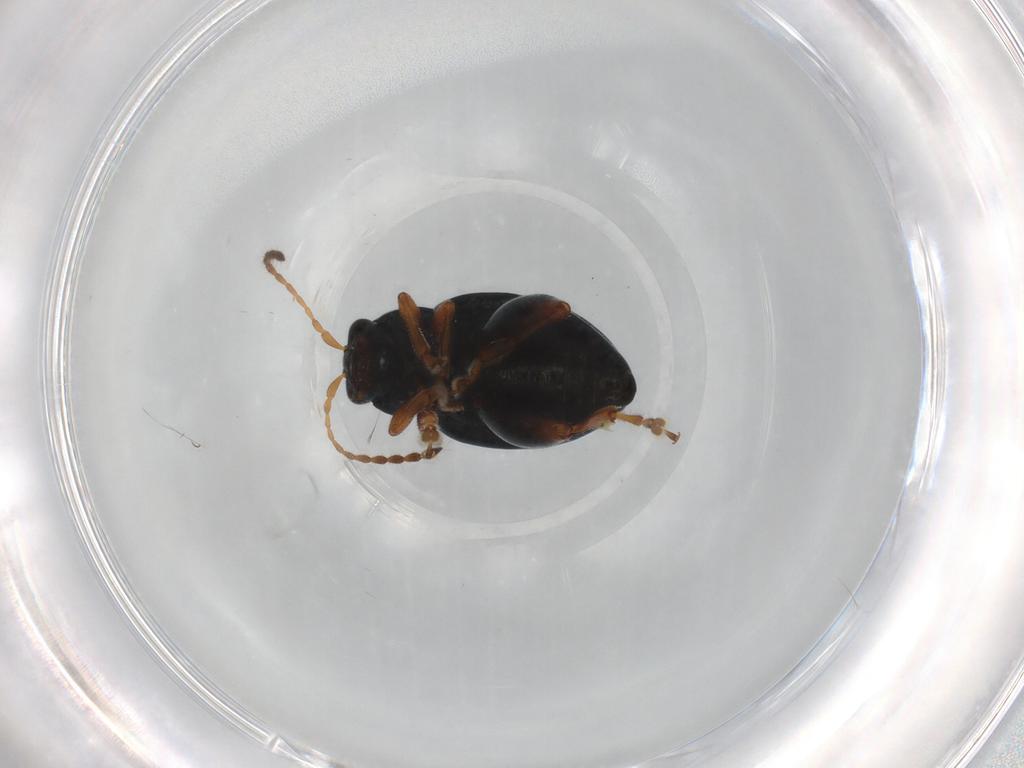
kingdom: Animalia
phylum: Arthropoda
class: Insecta
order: Coleoptera
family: Chrysomelidae
